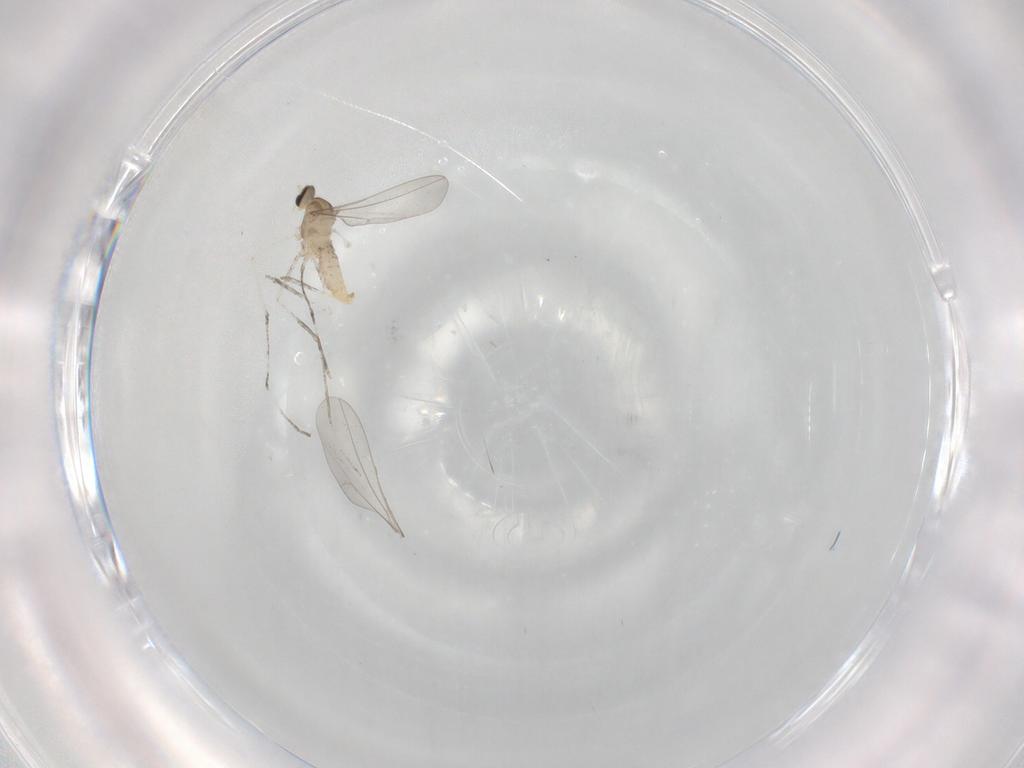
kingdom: Animalia
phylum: Arthropoda
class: Insecta
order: Diptera
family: Cecidomyiidae
